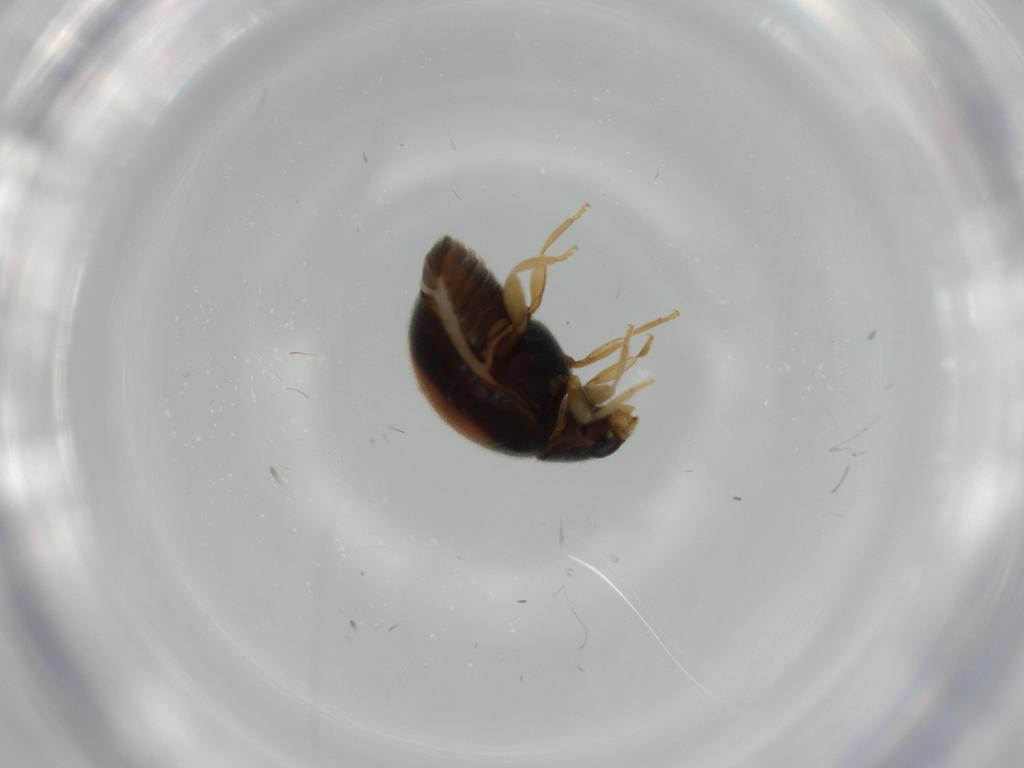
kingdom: Animalia
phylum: Arthropoda
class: Insecta
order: Coleoptera
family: Coccinellidae
